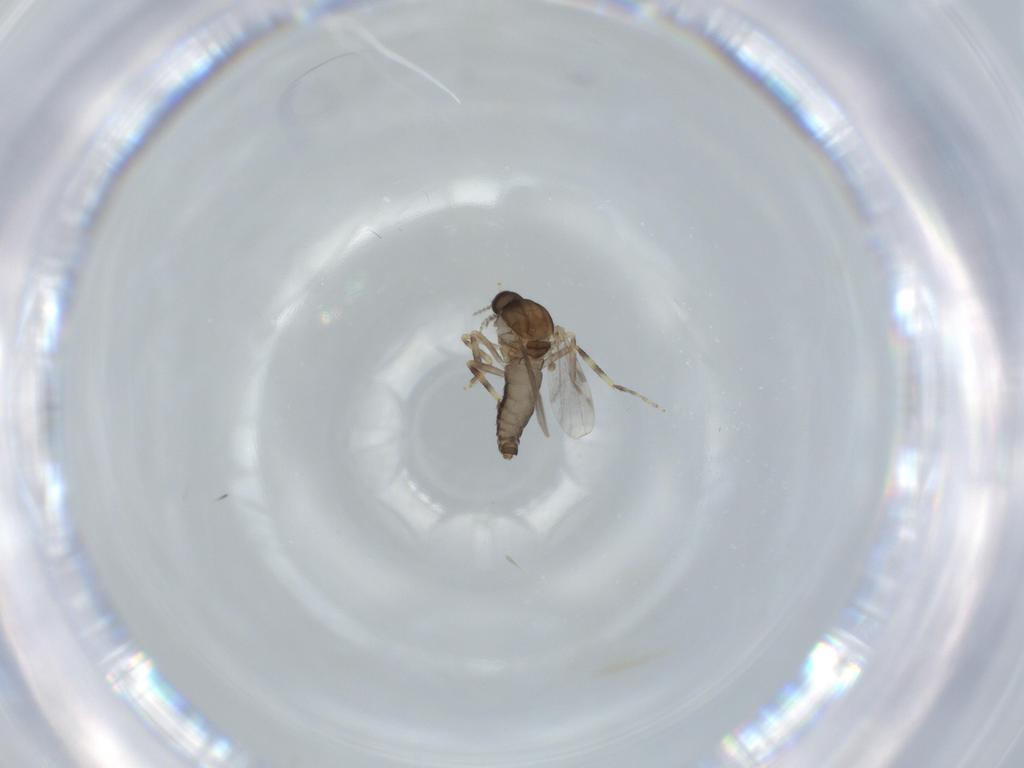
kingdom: Animalia
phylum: Arthropoda
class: Insecta
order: Diptera
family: Ceratopogonidae
